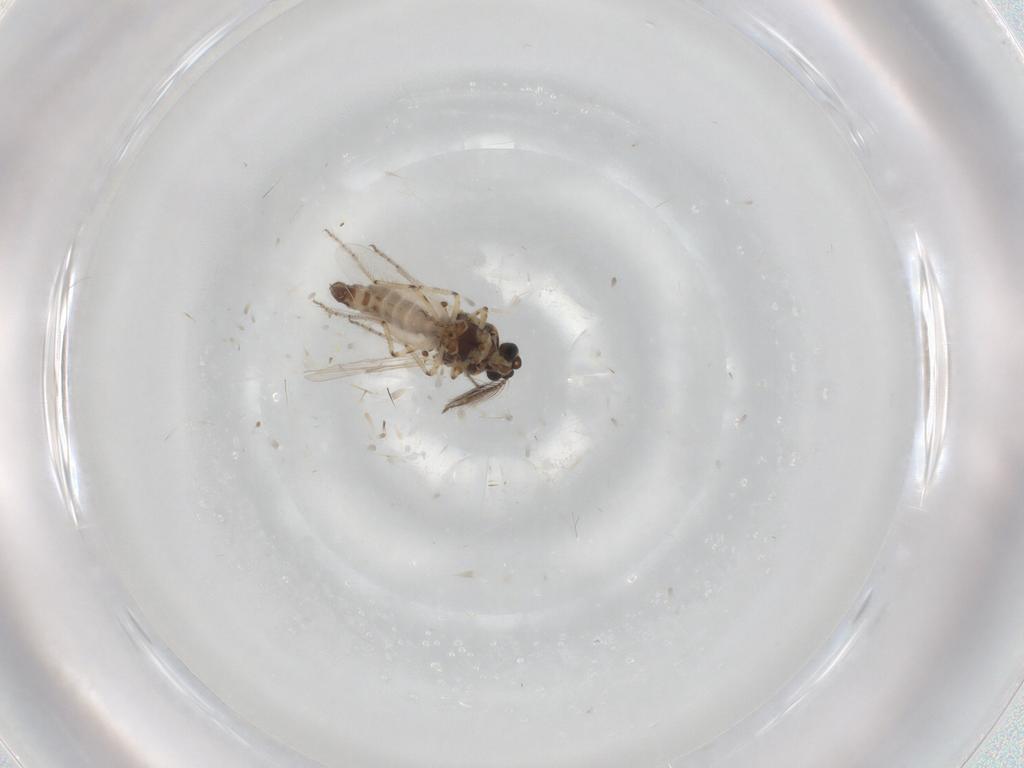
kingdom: Animalia
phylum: Arthropoda
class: Insecta
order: Diptera
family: Ceratopogonidae
